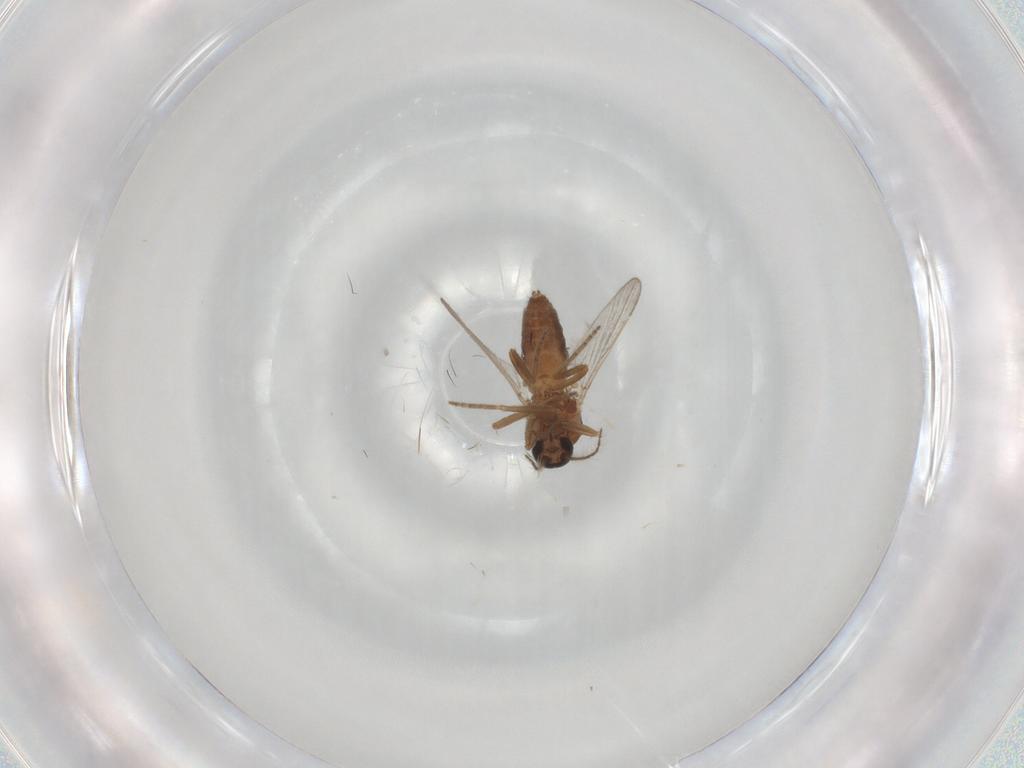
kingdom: Animalia
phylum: Arthropoda
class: Insecta
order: Diptera
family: Ceratopogonidae
